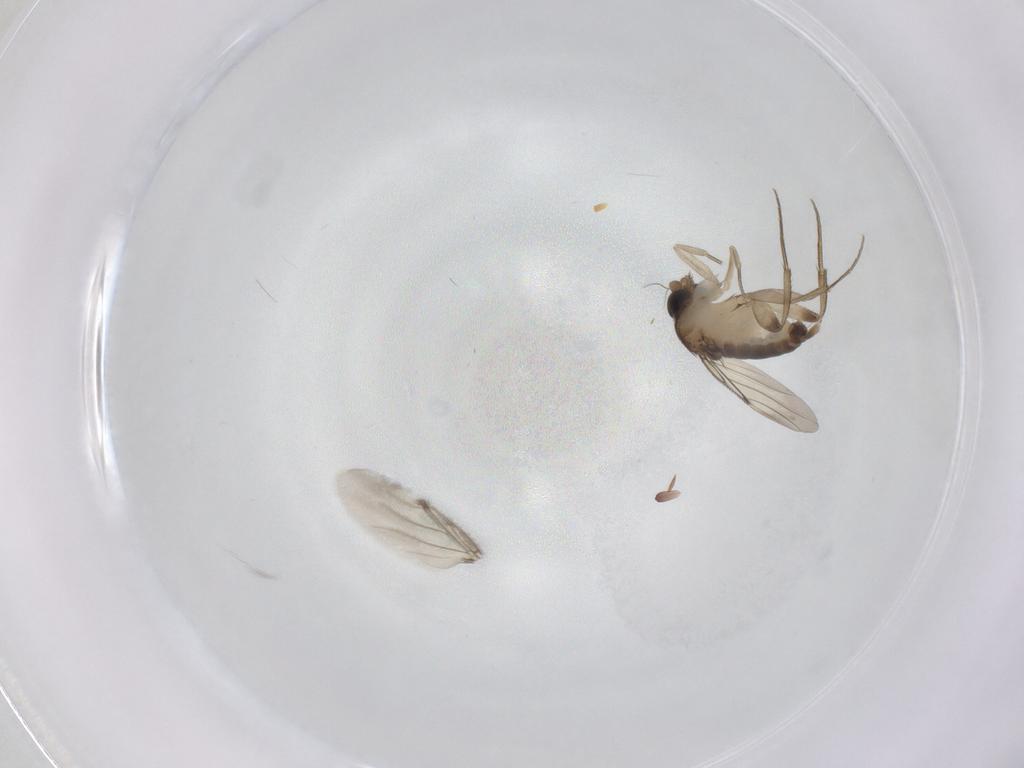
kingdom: Animalia
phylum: Arthropoda
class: Insecta
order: Diptera
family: Phoridae
